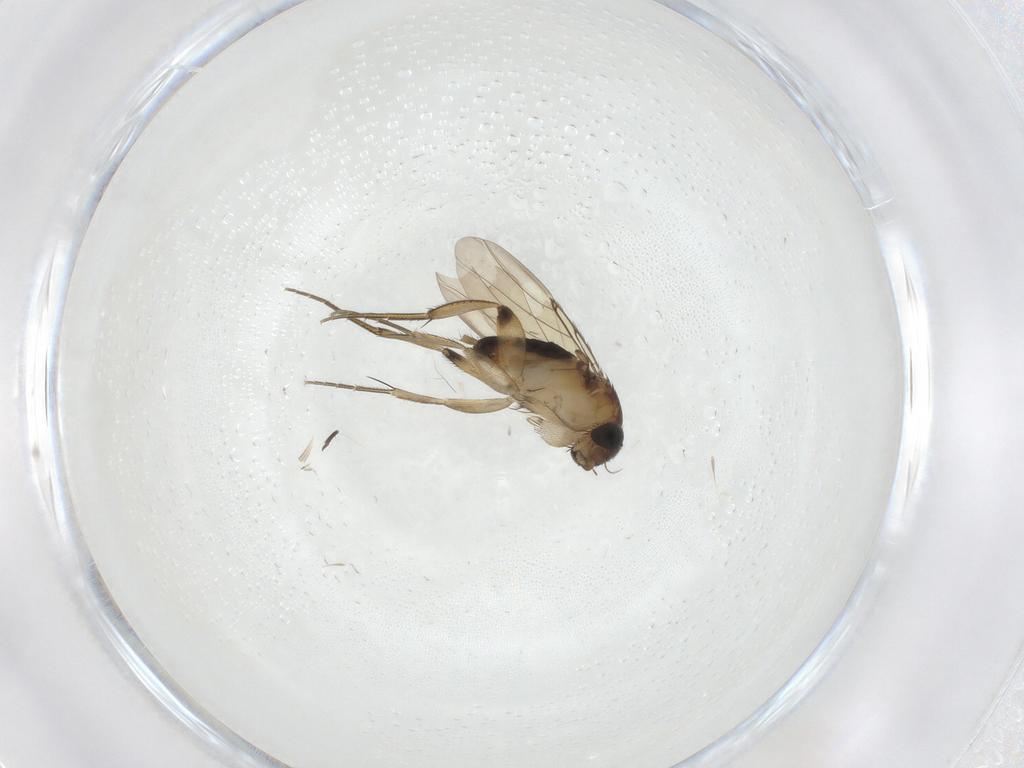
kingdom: Animalia
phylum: Arthropoda
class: Insecta
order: Diptera
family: Phoridae
